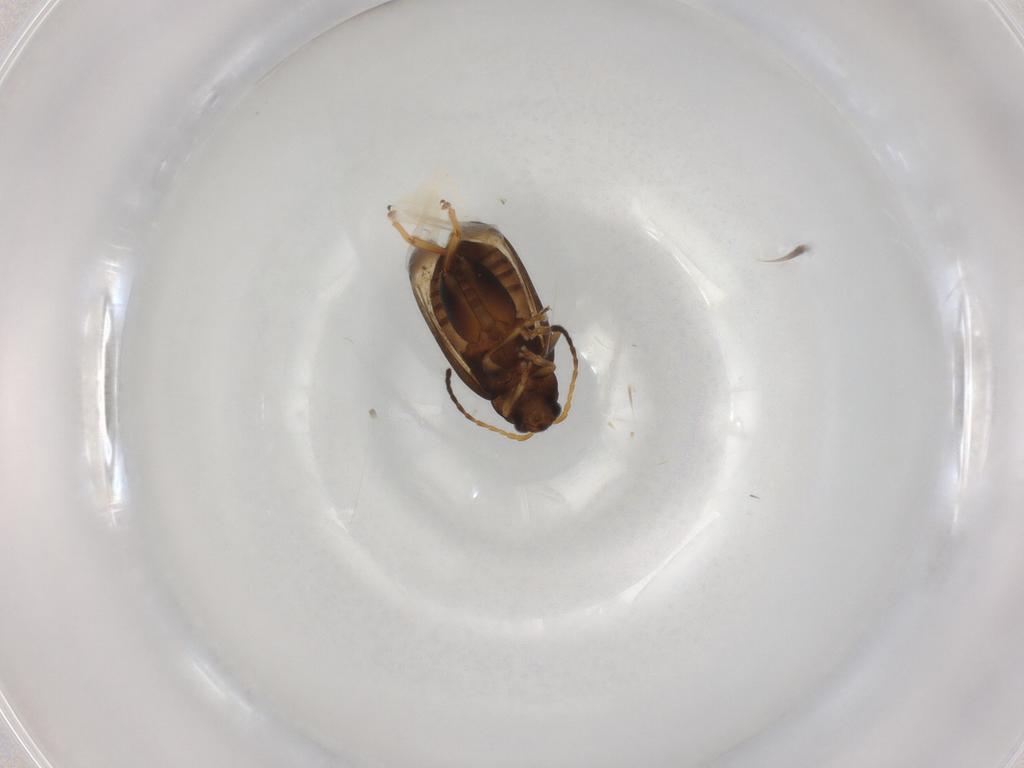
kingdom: Animalia
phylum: Arthropoda
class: Insecta
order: Coleoptera
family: Chrysomelidae
